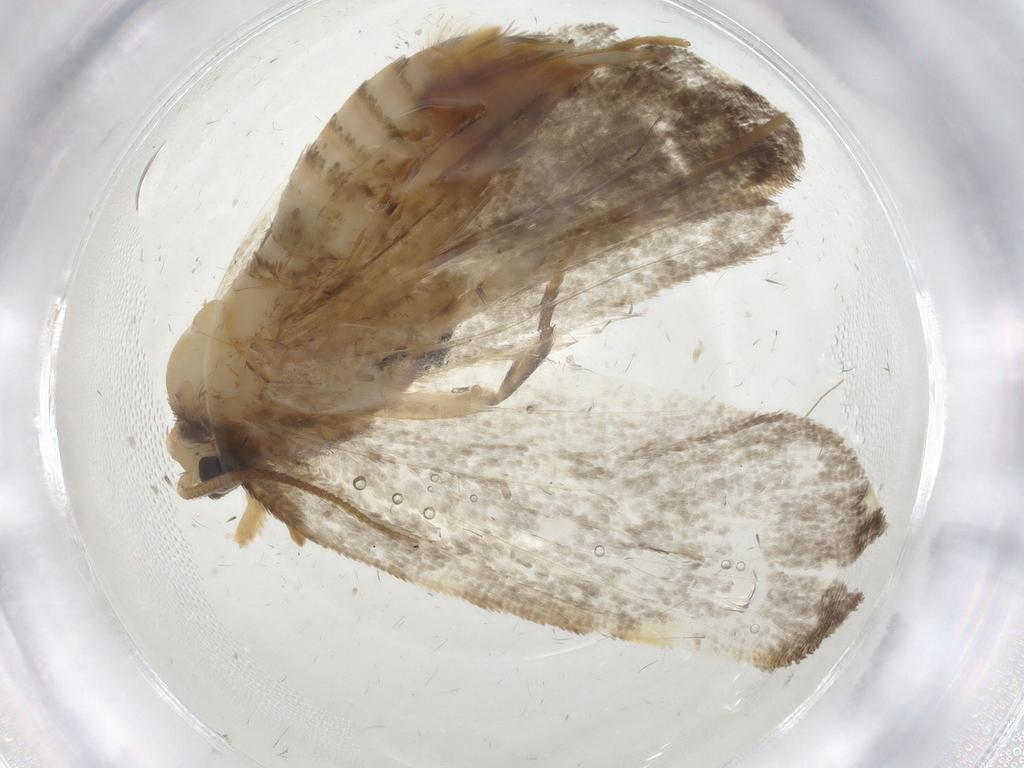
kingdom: Animalia
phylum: Arthropoda
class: Insecta
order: Lepidoptera
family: Psychidae
